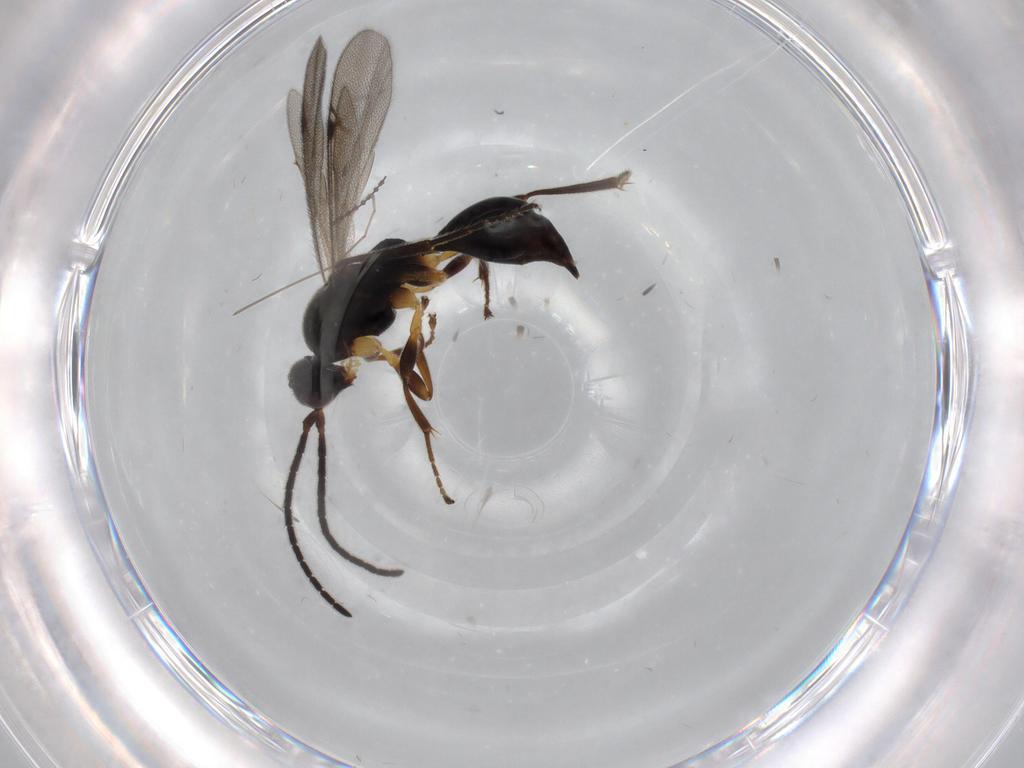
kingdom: Animalia
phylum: Arthropoda
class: Insecta
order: Hymenoptera
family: Proctotrupidae
